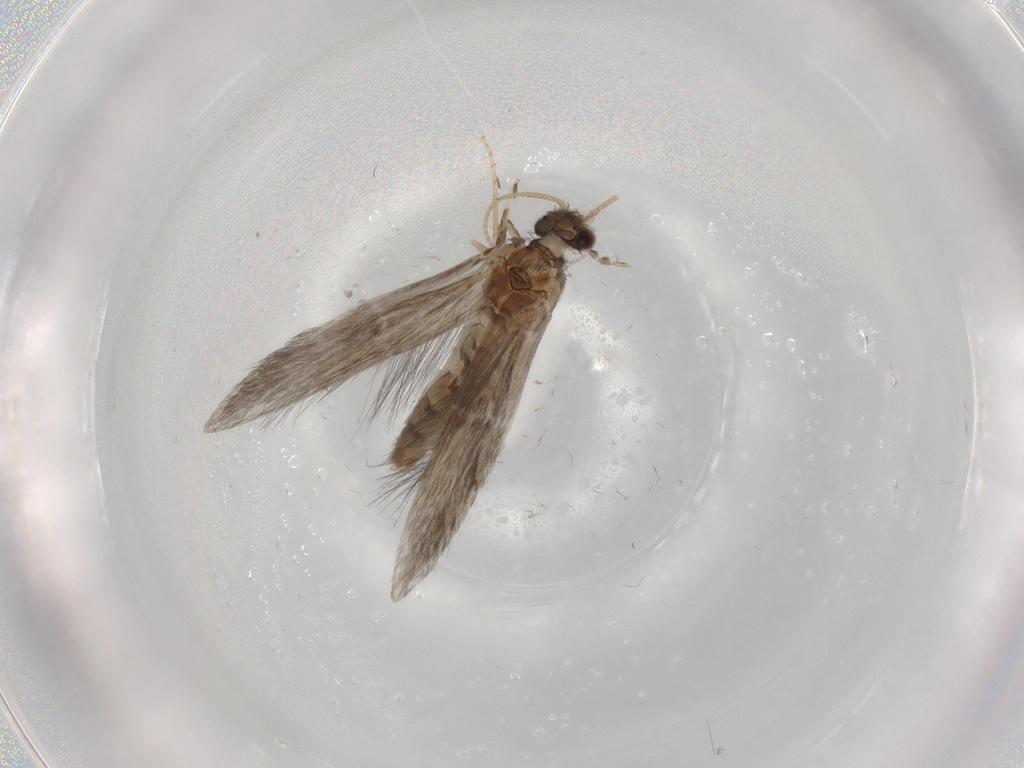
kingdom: Animalia
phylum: Arthropoda
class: Insecta
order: Trichoptera
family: Hydroptilidae
